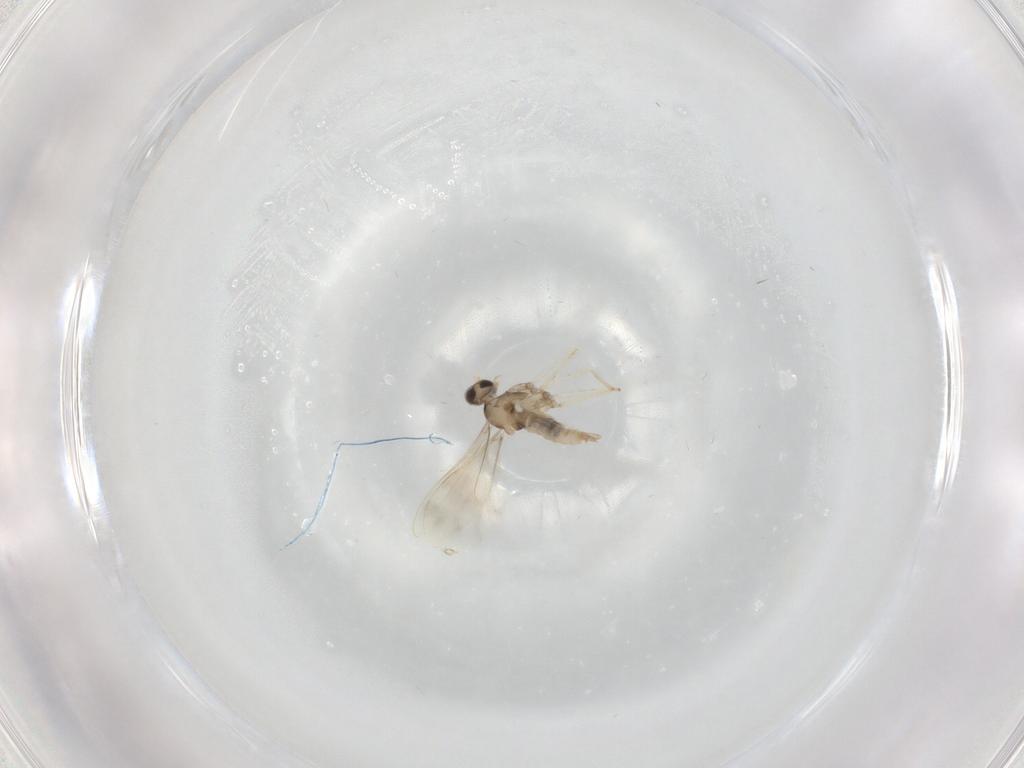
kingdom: Animalia
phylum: Arthropoda
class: Insecta
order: Diptera
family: Cecidomyiidae
